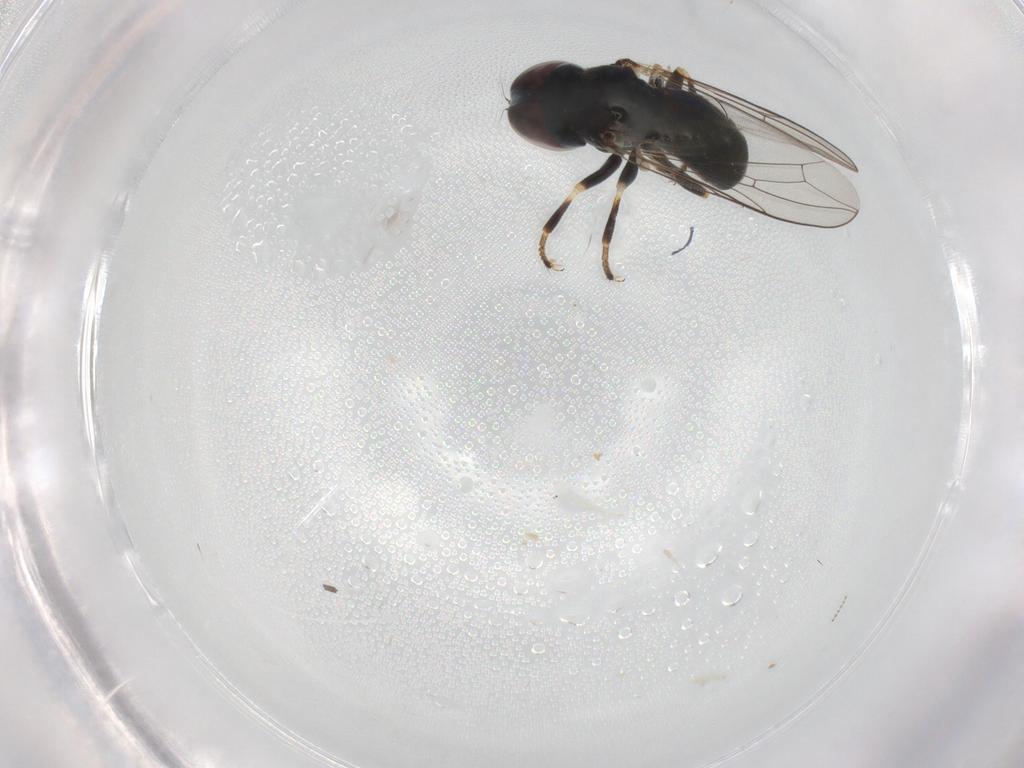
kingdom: Animalia
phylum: Arthropoda
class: Insecta
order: Diptera
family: Pipunculidae
